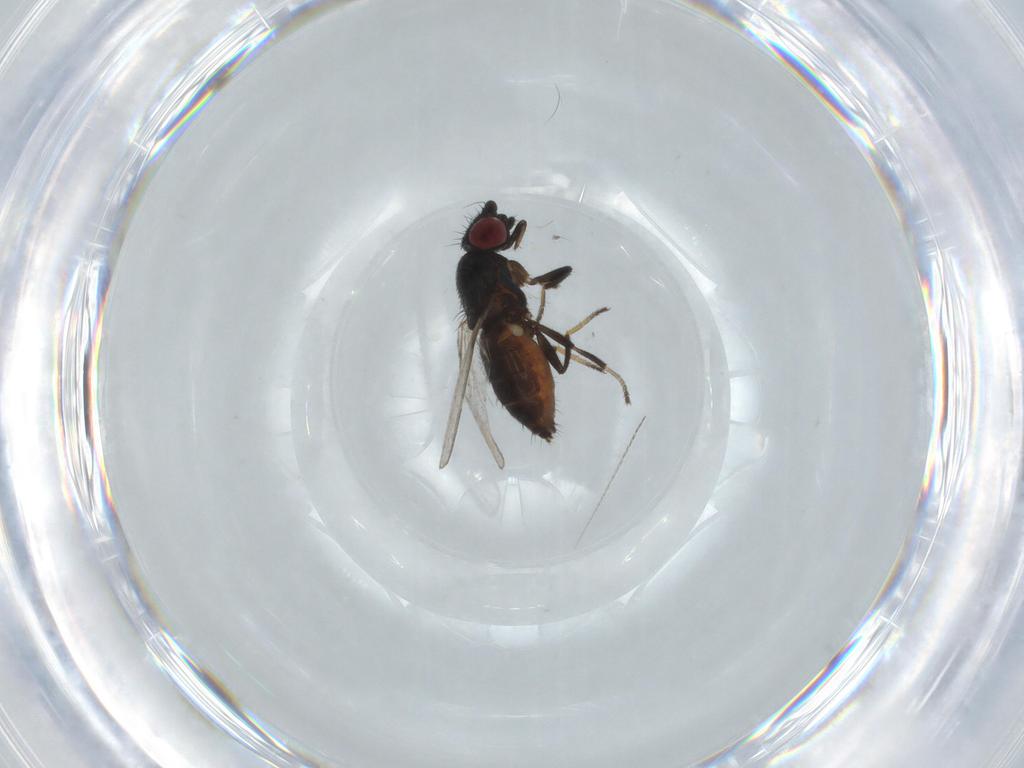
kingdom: Animalia
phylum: Arthropoda
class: Insecta
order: Diptera
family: Milichiidae
